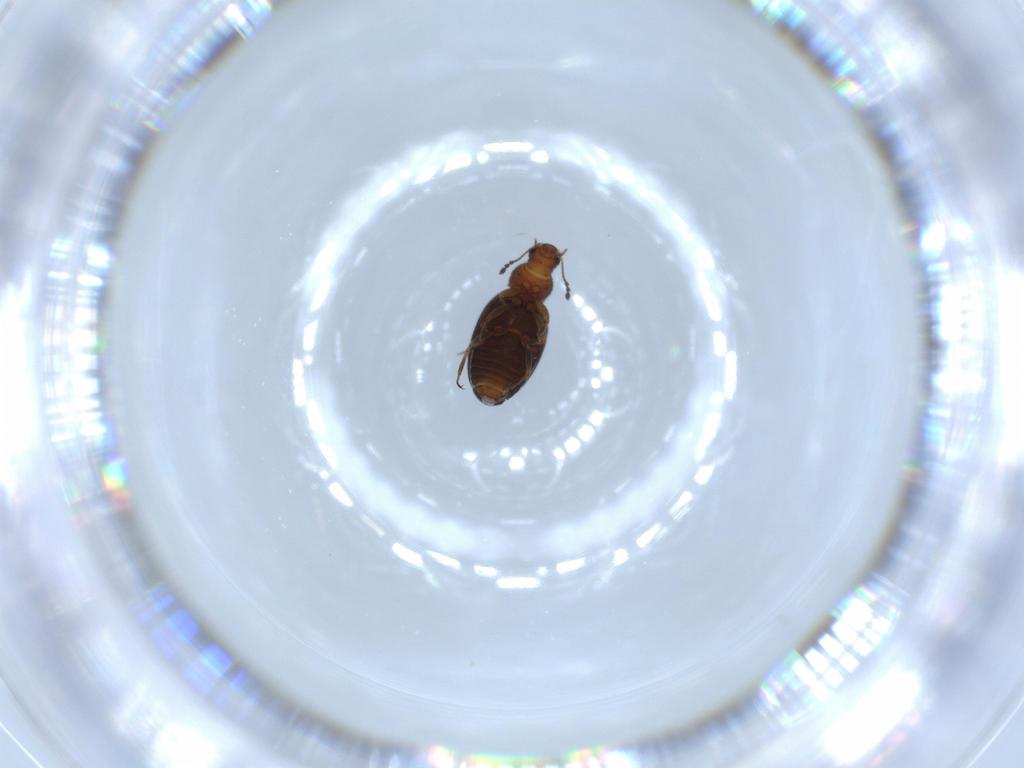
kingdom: Animalia
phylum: Arthropoda
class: Insecta
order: Coleoptera
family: Latridiidae
